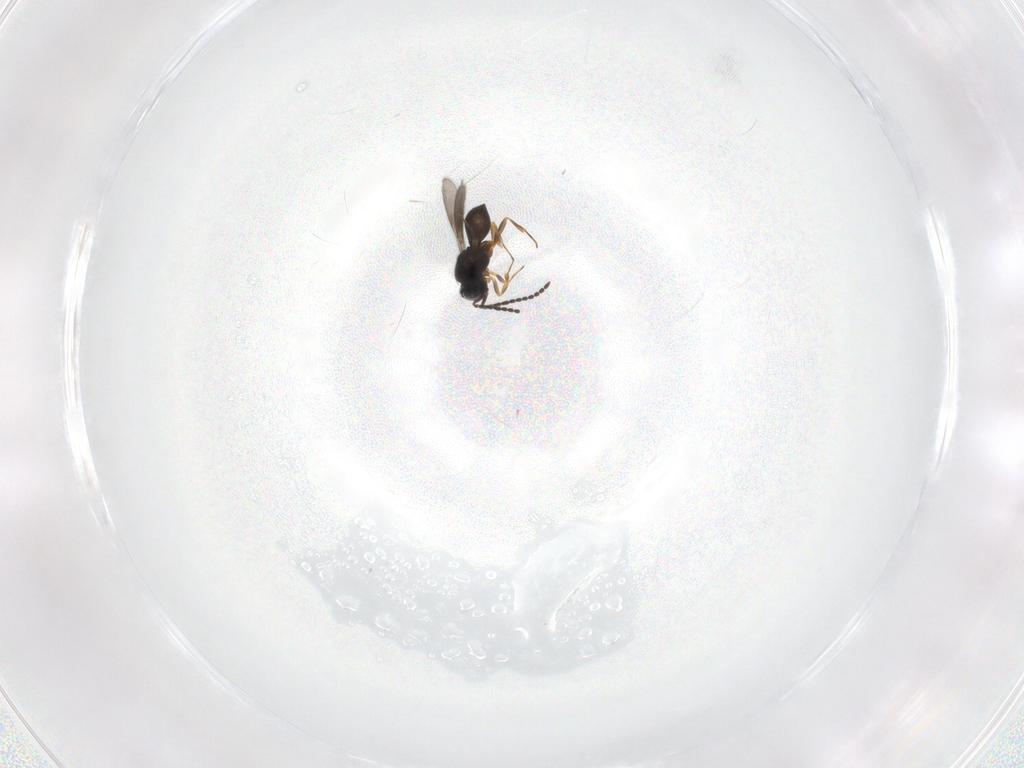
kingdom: Animalia
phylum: Arthropoda
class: Insecta
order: Hymenoptera
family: Scelionidae
